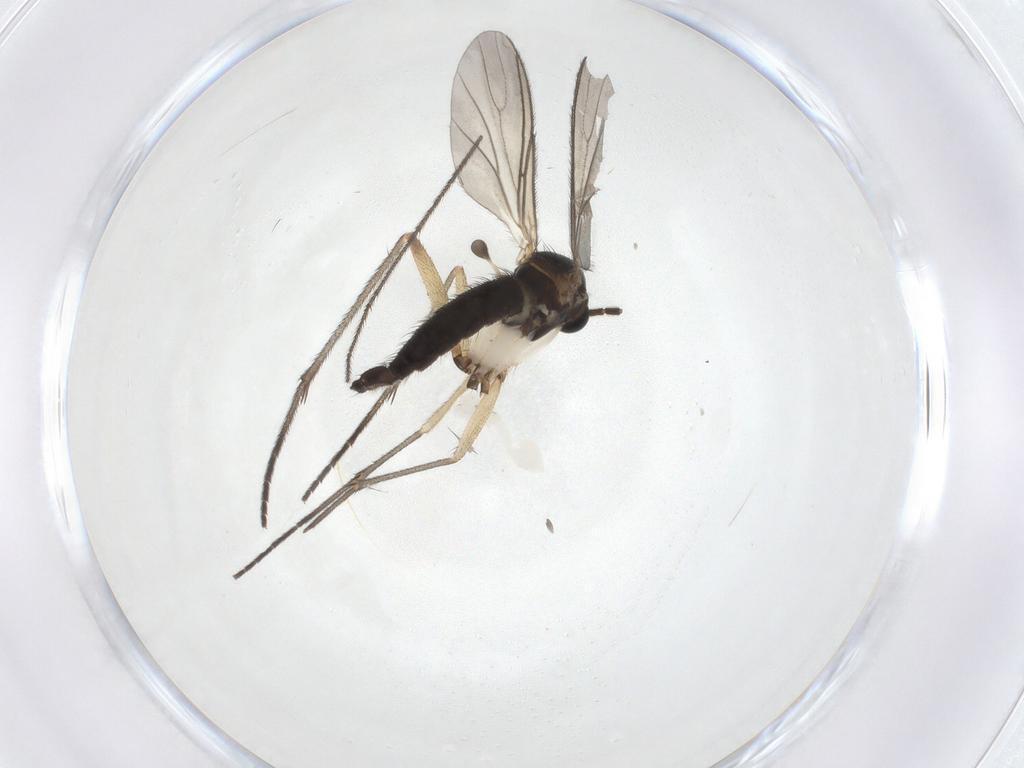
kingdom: Animalia
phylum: Arthropoda
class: Insecta
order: Diptera
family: Sciaridae
